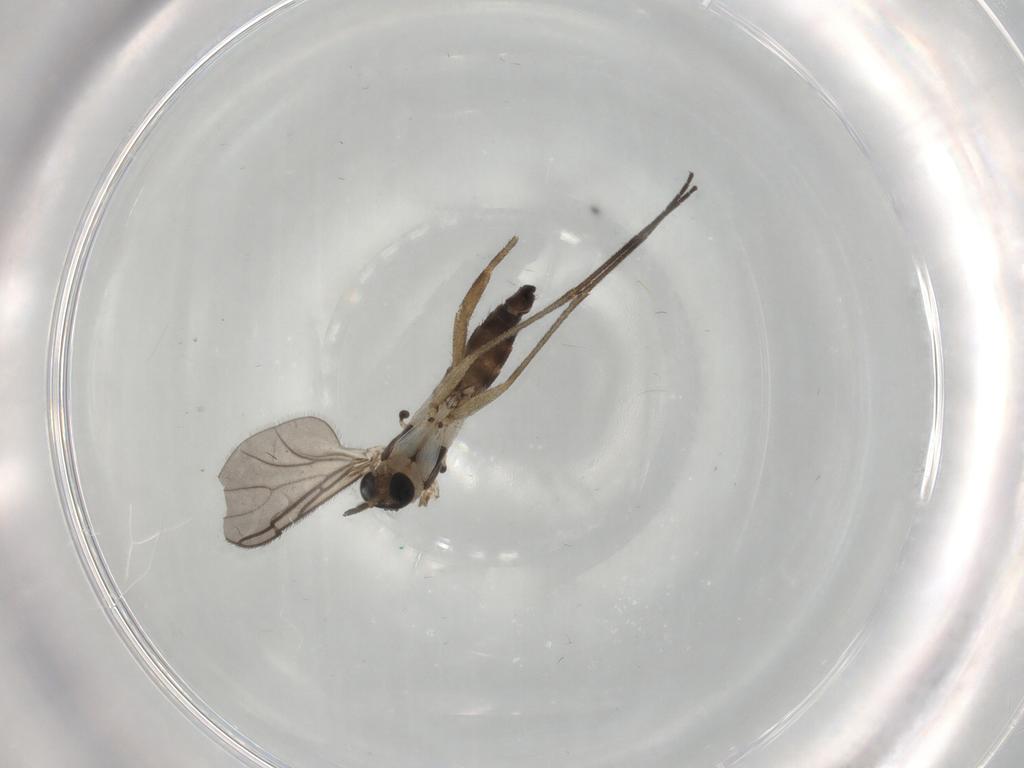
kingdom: Animalia
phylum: Arthropoda
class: Insecta
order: Diptera
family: Sciaridae
